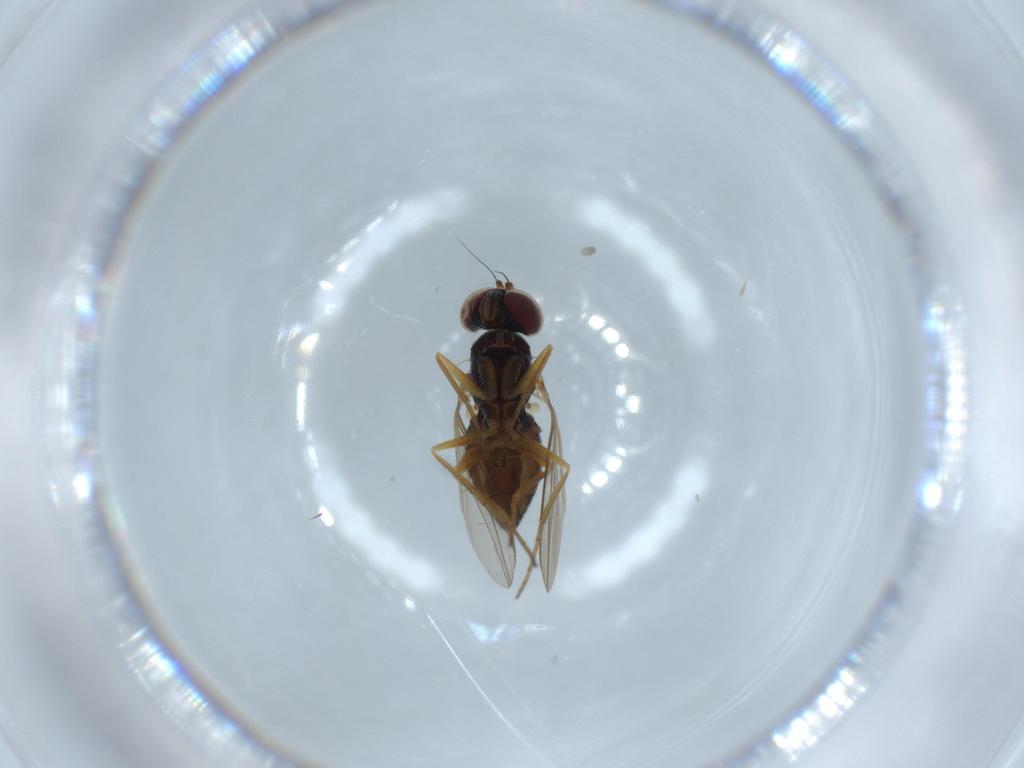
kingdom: Animalia
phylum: Arthropoda
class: Insecta
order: Diptera
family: Dolichopodidae
